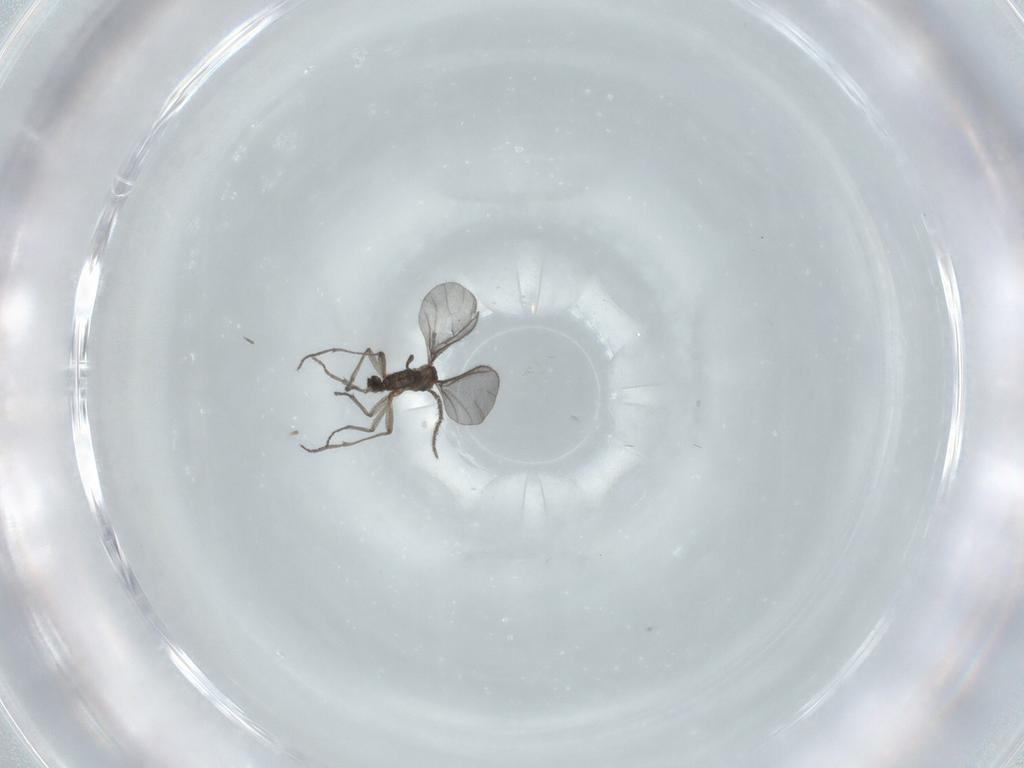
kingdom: Animalia
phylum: Arthropoda
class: Insecta
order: Diptera
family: Sciaridae
